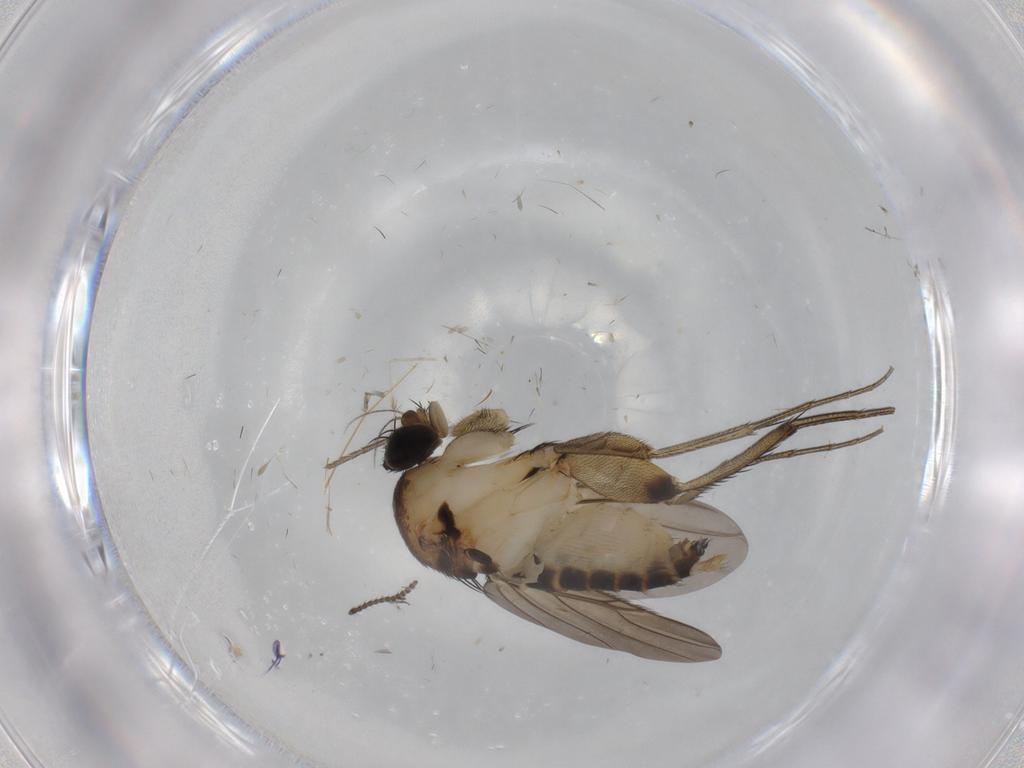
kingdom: Animalia
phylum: Arthropoda
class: Insecta
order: Diptera
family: Ditomyiidae
